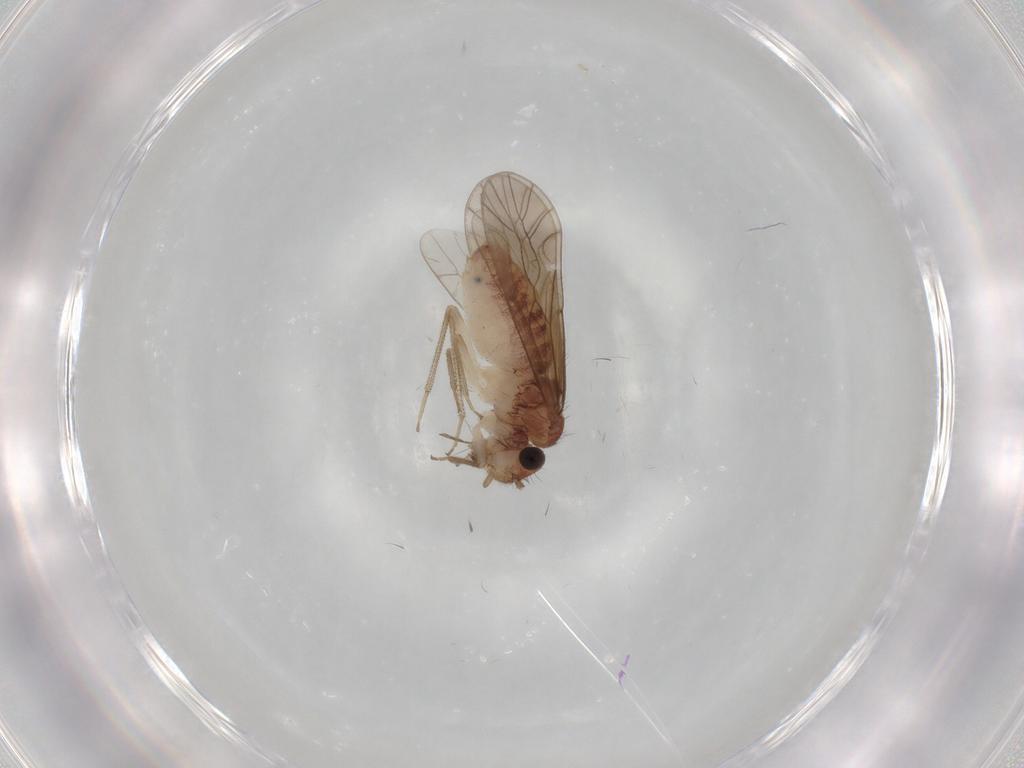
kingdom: Animalia
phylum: Arthropoda
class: Insecta
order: Psocodea
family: Caeciliusidae
